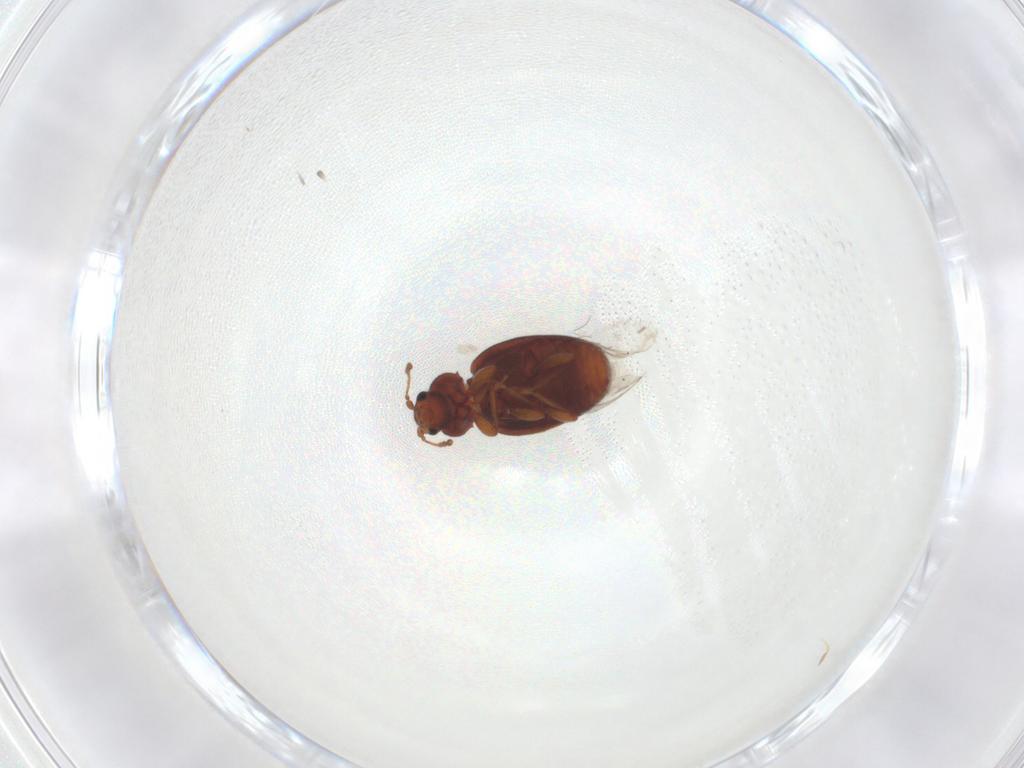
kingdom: Animalia
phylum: Arthropoda
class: Insecta
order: Coleoptera
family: Latridiidae
